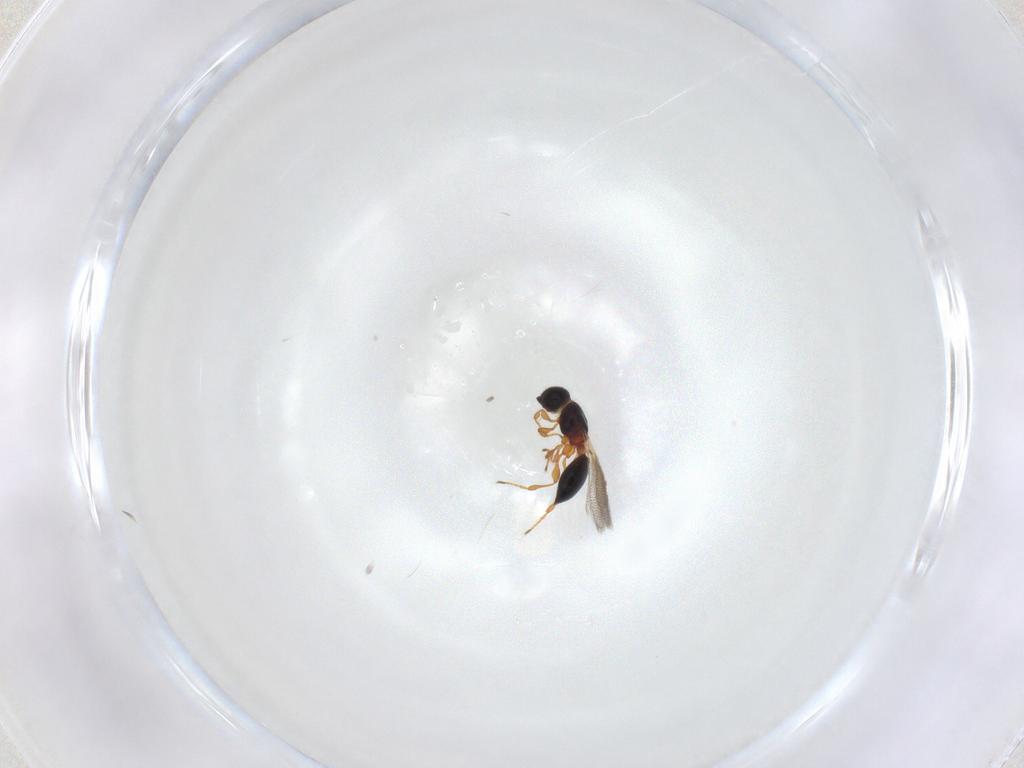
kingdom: Animalia
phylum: Arthropoda
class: Insecta
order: Hymenoptera
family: Diapriidae
